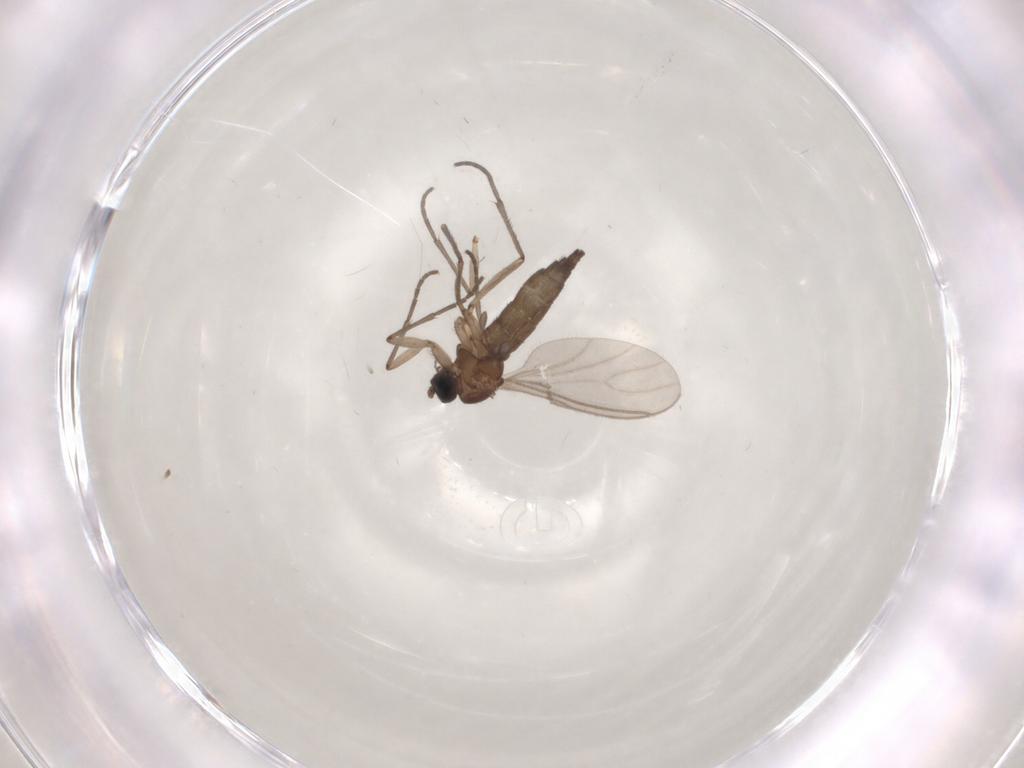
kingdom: Animalia
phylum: Arthropoda
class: Insecta
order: Diptera
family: Sciaridae
